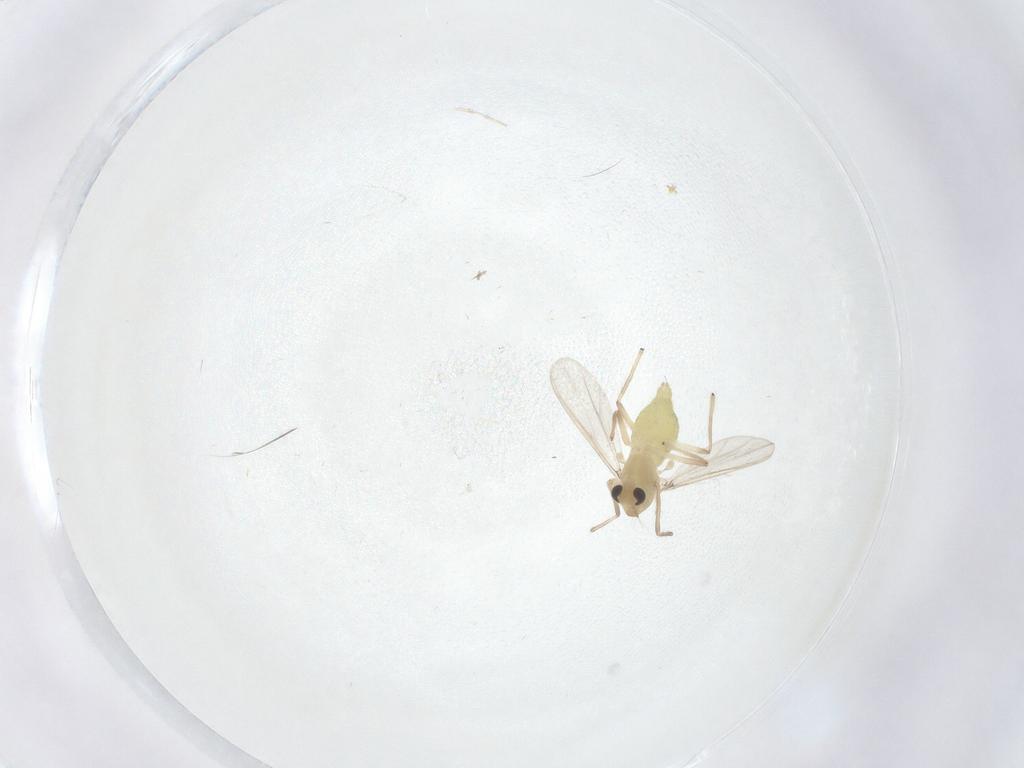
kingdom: Animalia
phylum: Arthropoda
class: Insecta
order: Diptera
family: Chironomidae
